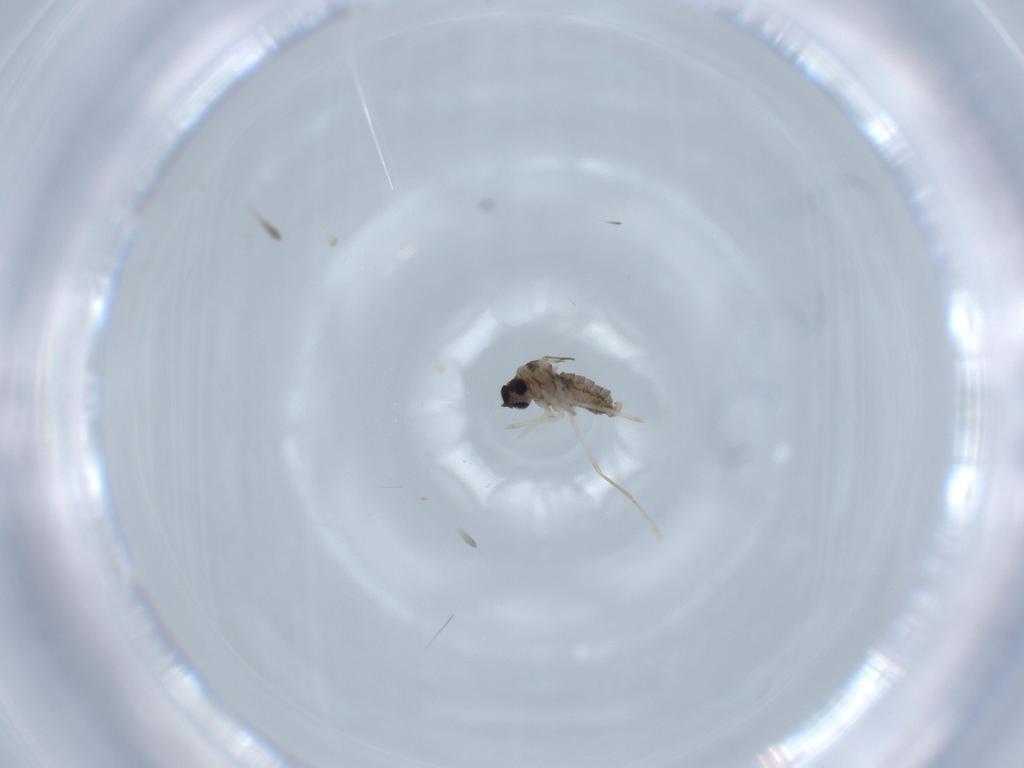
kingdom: Animalia
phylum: Arthropoda
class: Insecta
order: Diptera
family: Cecidomyiidae
